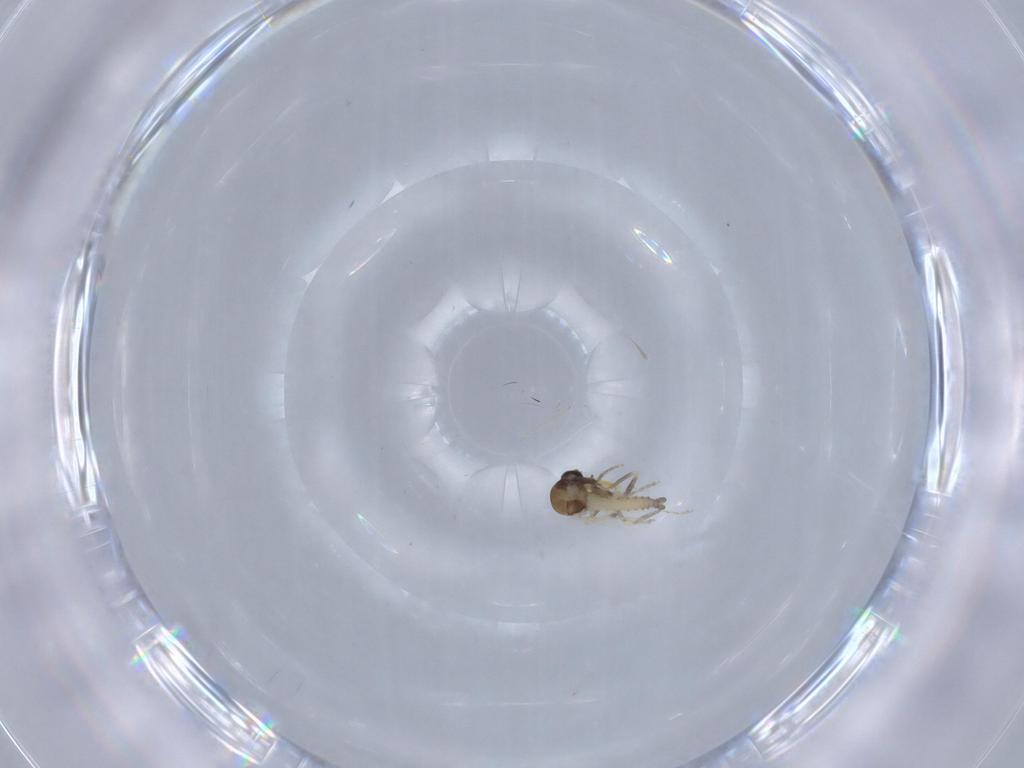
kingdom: Animalia
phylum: Arthropoda
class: Insecta
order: Diptera
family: Ceratopogonidae
